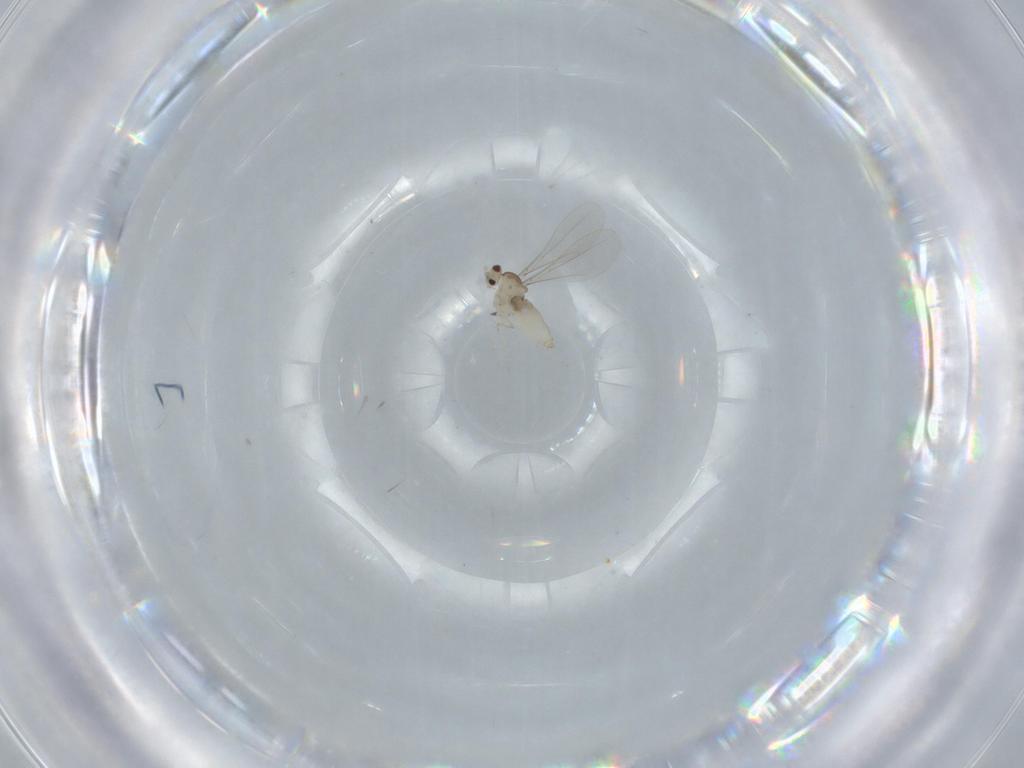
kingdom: Animalia
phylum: Arthropoda
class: Insecta
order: Diptera
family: Cecidomyiidae
